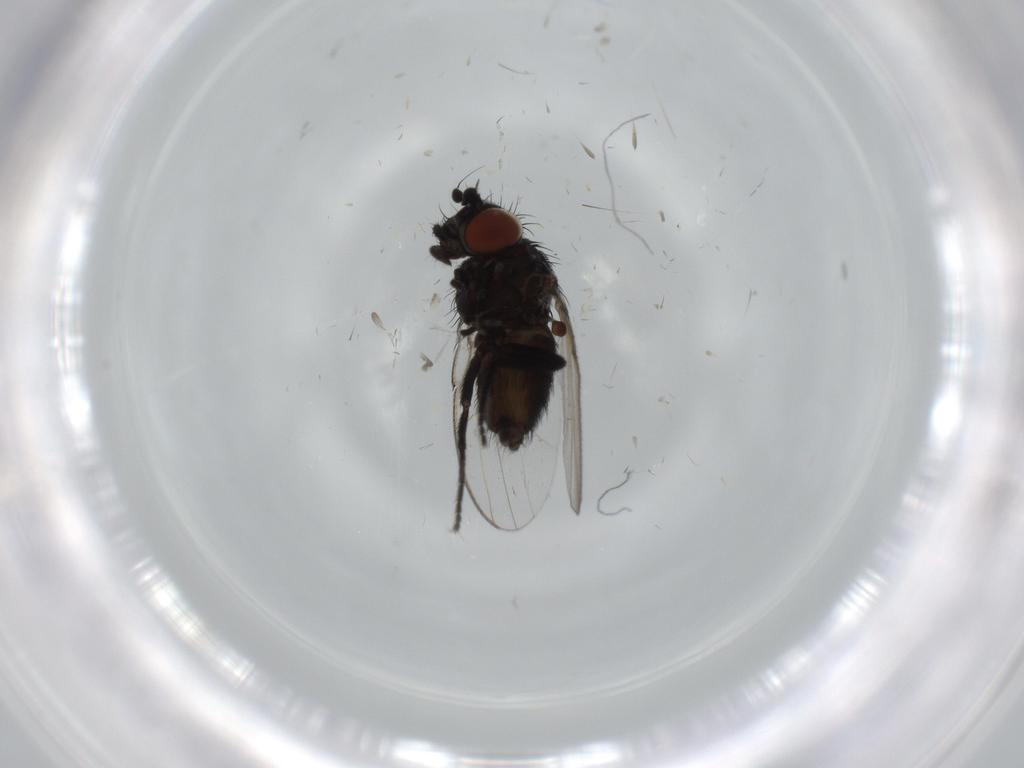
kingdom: Animalia
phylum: Arthropoda
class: Insecta
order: Diptera
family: Milichiidae
